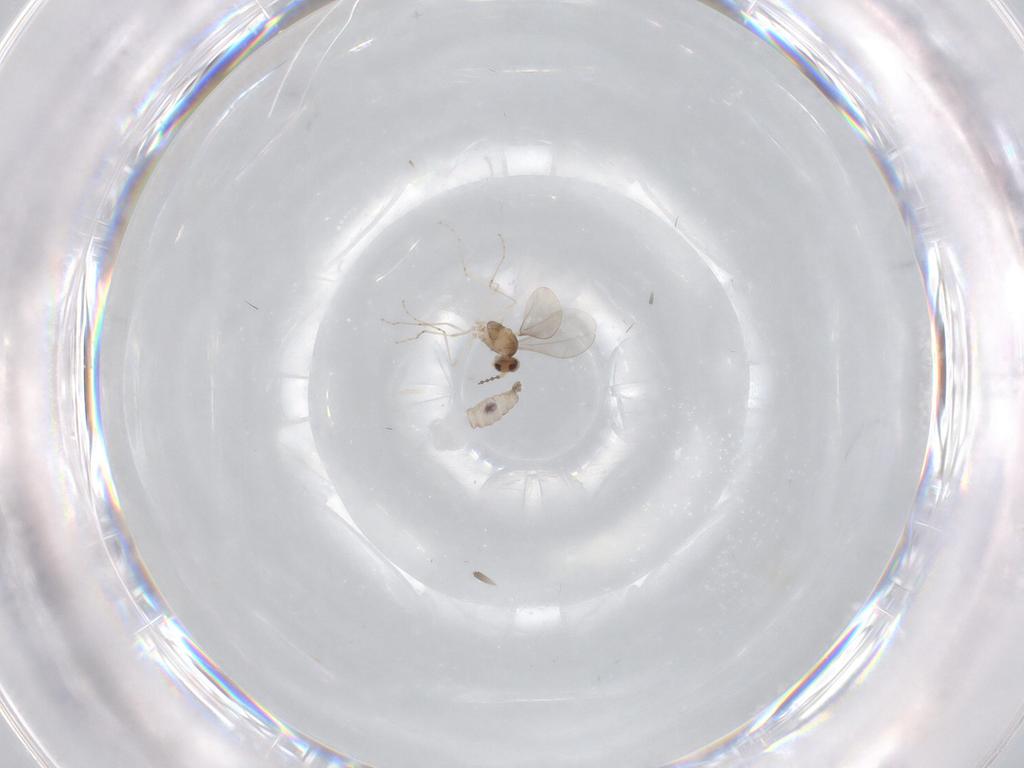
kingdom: Animalia
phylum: Arthropoda
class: Insecta
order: Diptera
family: Cecidomyiidae
